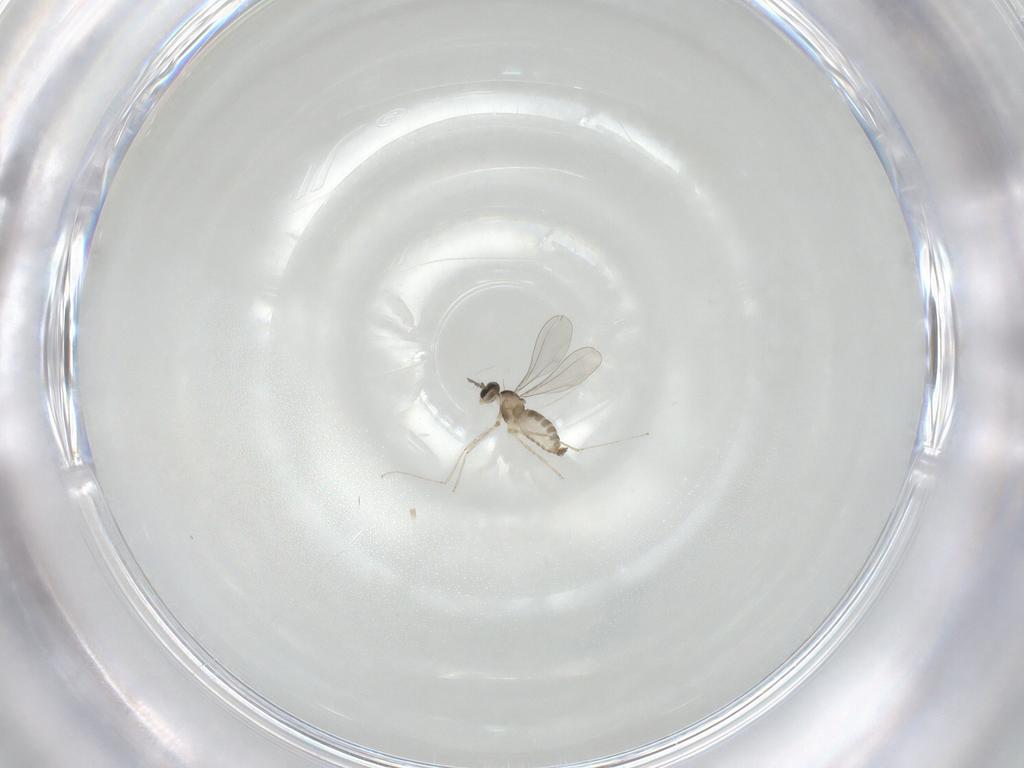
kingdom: Animalia
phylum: Arthropoda
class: Insecta
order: Diptera
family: Cecidomyiidae
